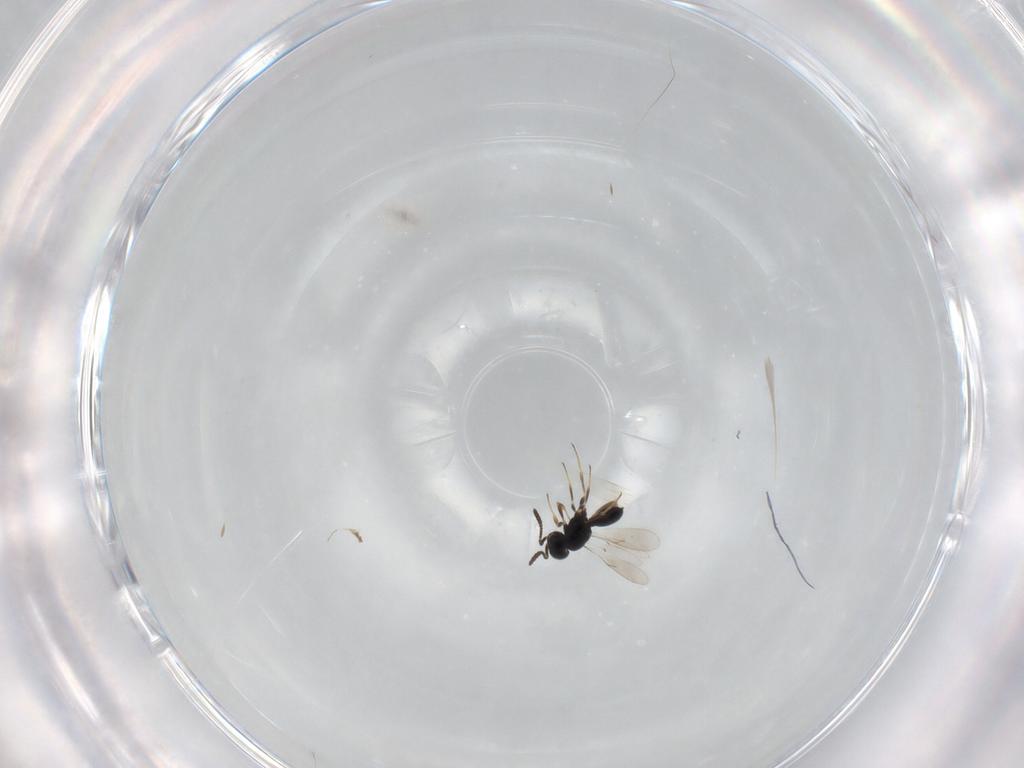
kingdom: Animalia
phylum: Arthropoda
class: Insecta
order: Hymenoptera
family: Scelionidae
